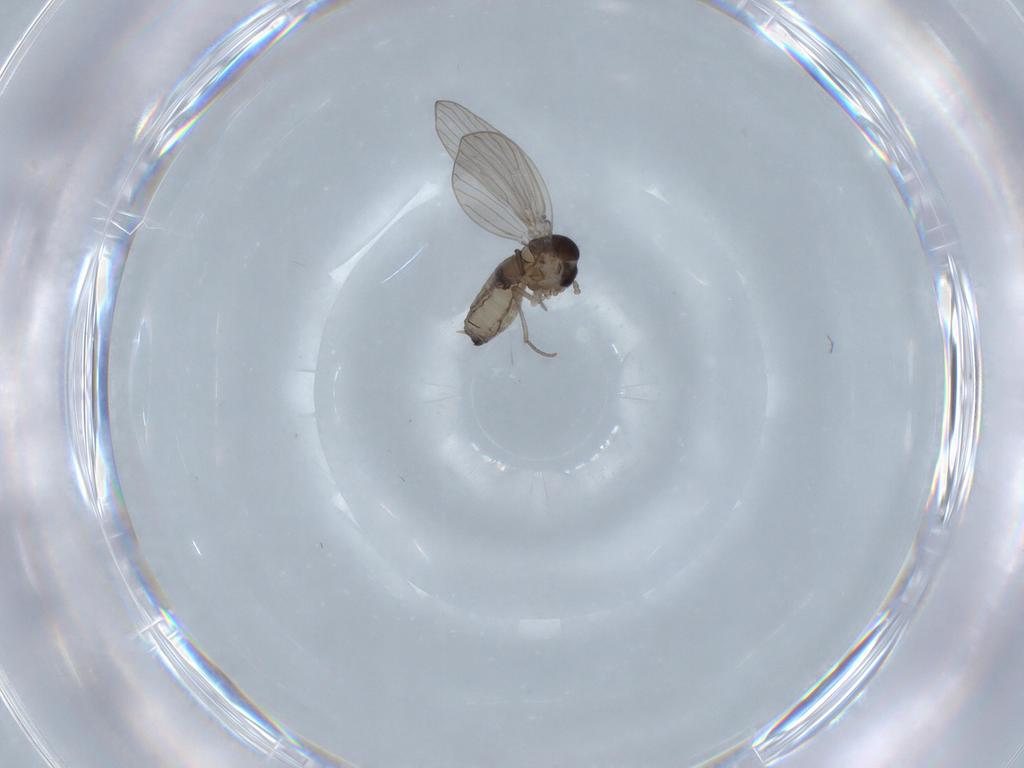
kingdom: Animalia
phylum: Arthropoda
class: Insecta
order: Diptera
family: Psychodidae
